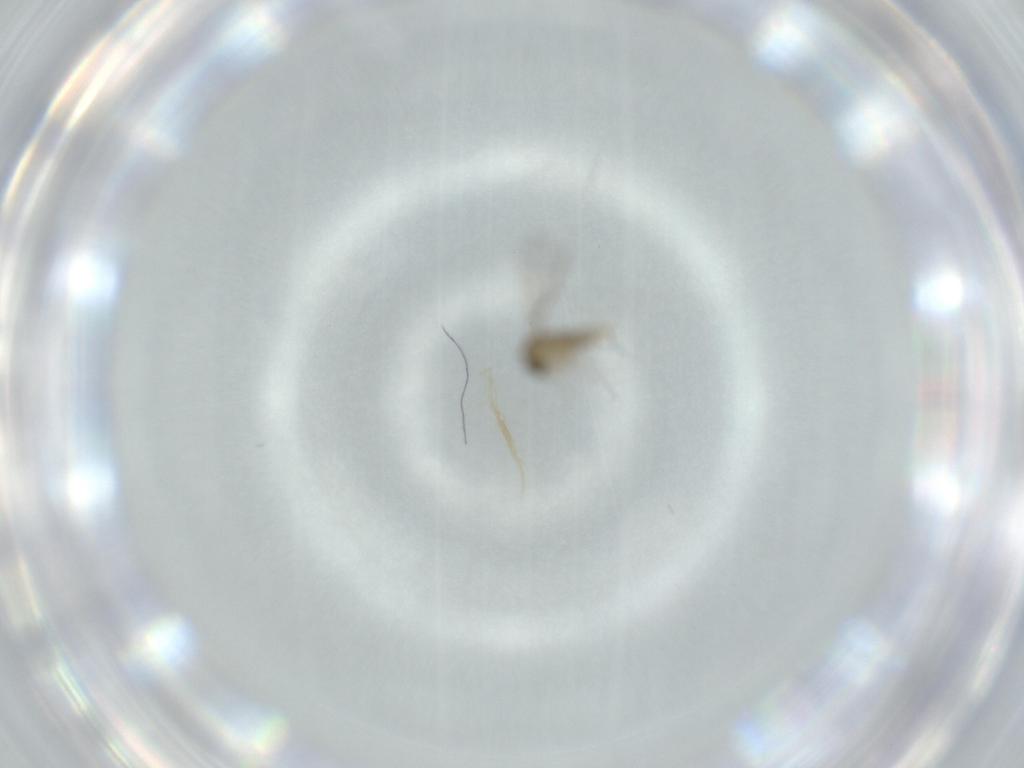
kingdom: Animalia
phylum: Arthropoda
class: Insecta
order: Diptera
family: Cecidomyiidae
